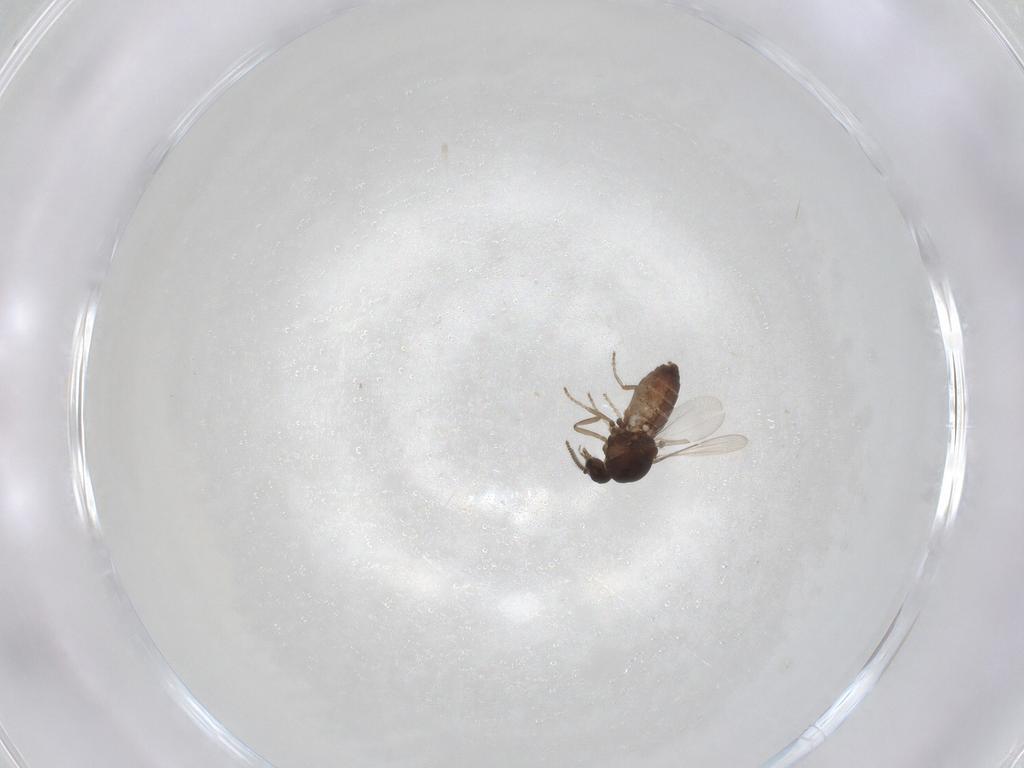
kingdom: Animalia
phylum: Arthropoda
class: Insecta
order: Diptera
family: Ceratopogonidae
